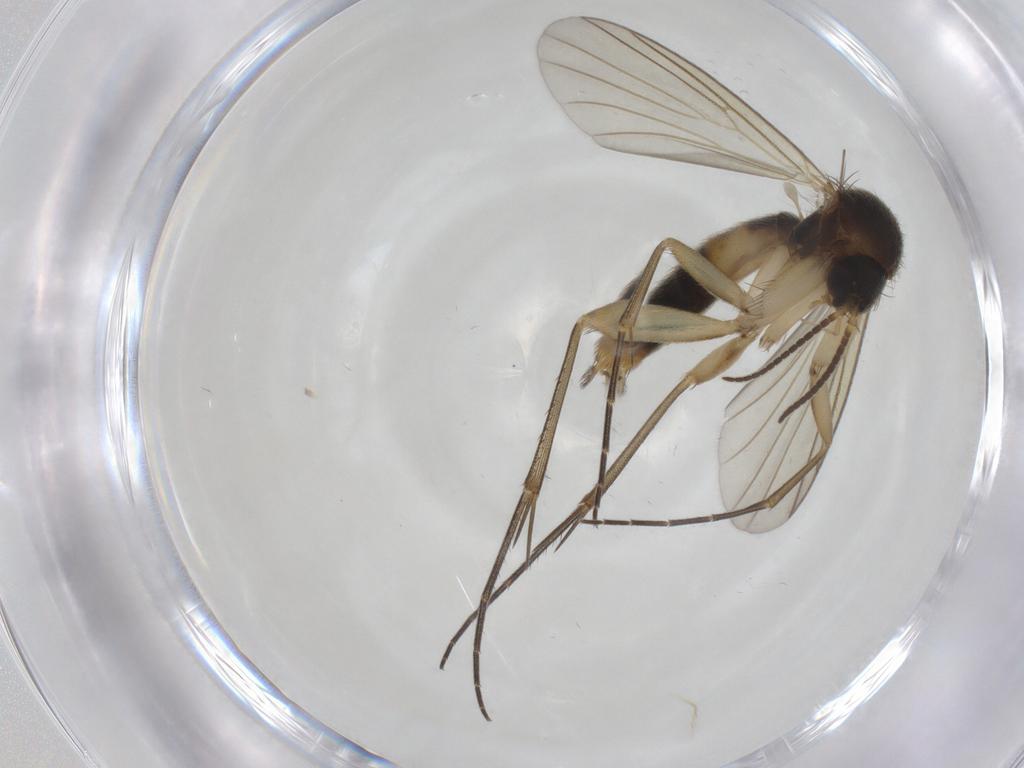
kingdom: Animalia
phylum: Arthropoda
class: Insecta
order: Diptera
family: Mycetophilidae
